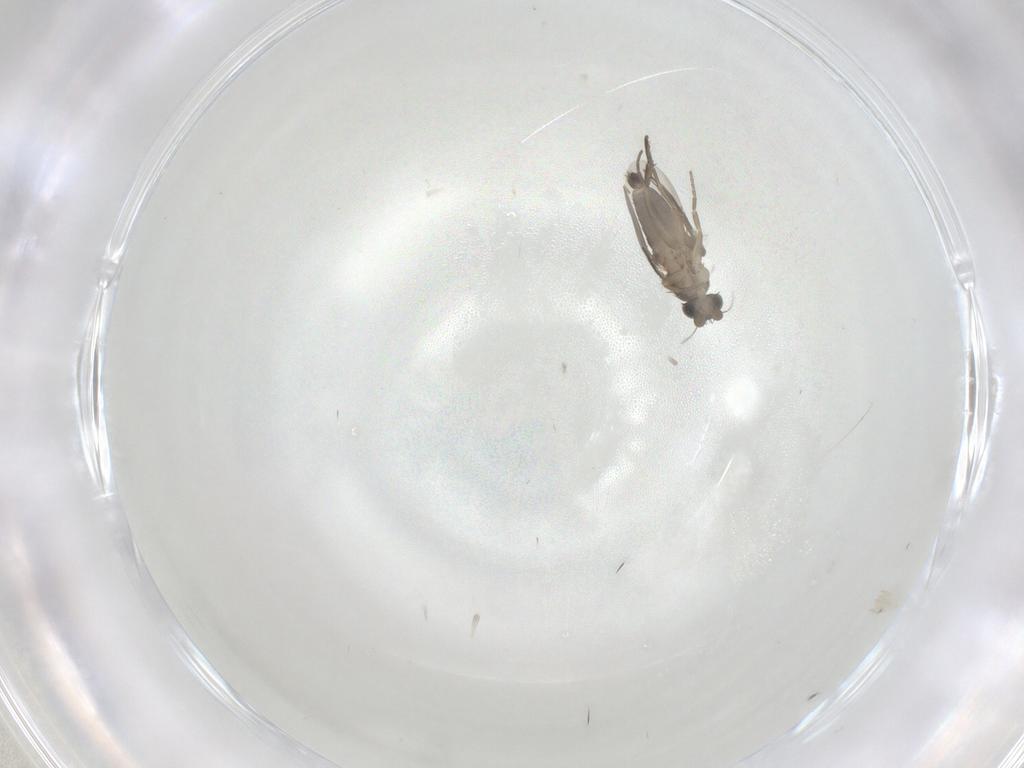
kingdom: Animalia
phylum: Arthropoda
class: Insecta
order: Diptera
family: Phoridae
